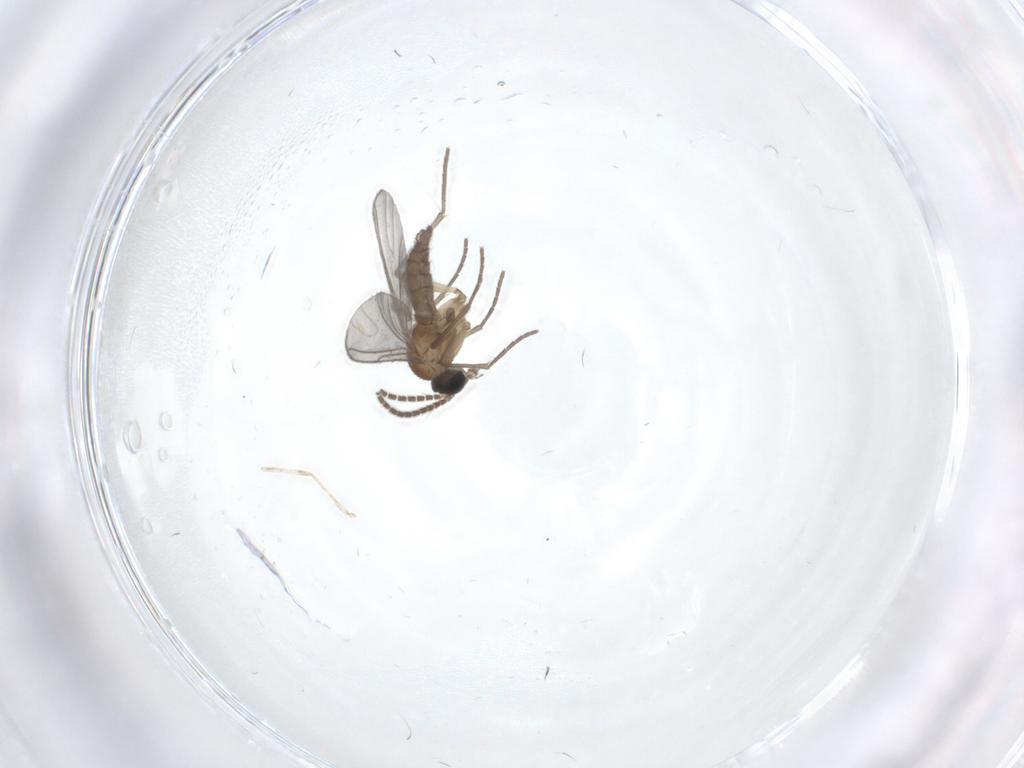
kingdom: Animalia
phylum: Arthropoda
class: Insecta
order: Diptera
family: Sciaridae
